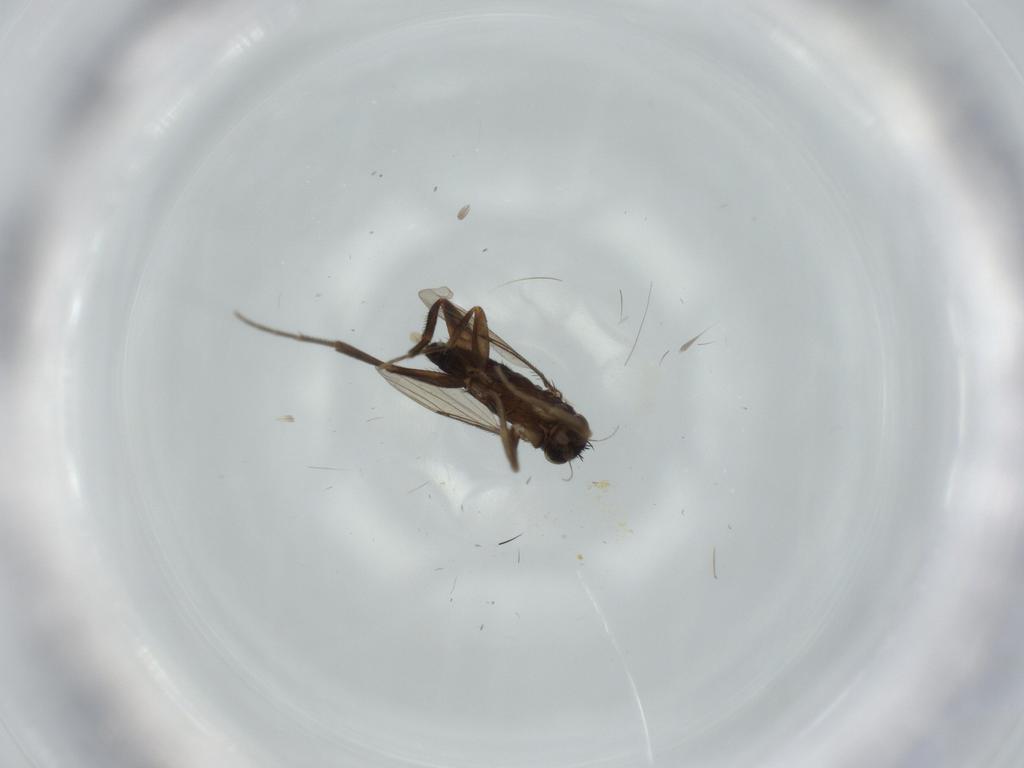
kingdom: Animalia
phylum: Arthropoda
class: Insecta
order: Diptera
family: Phoridae
